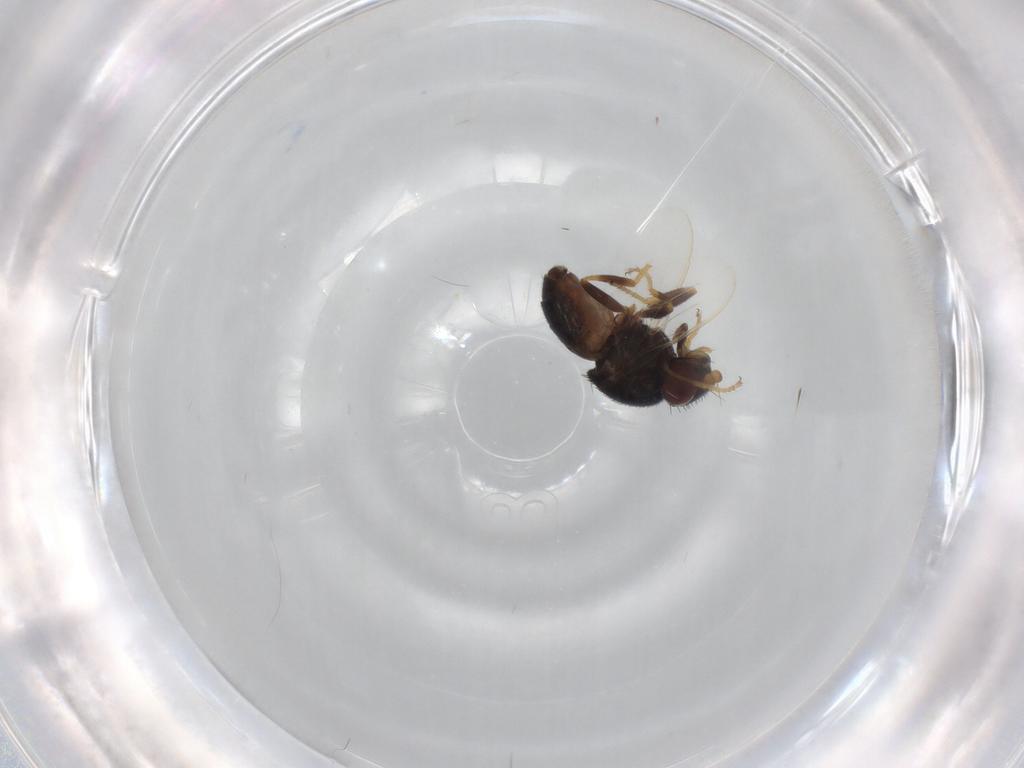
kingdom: Animalia
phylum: Arthropoda
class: Insecta
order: Diptera
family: Chloropidae
